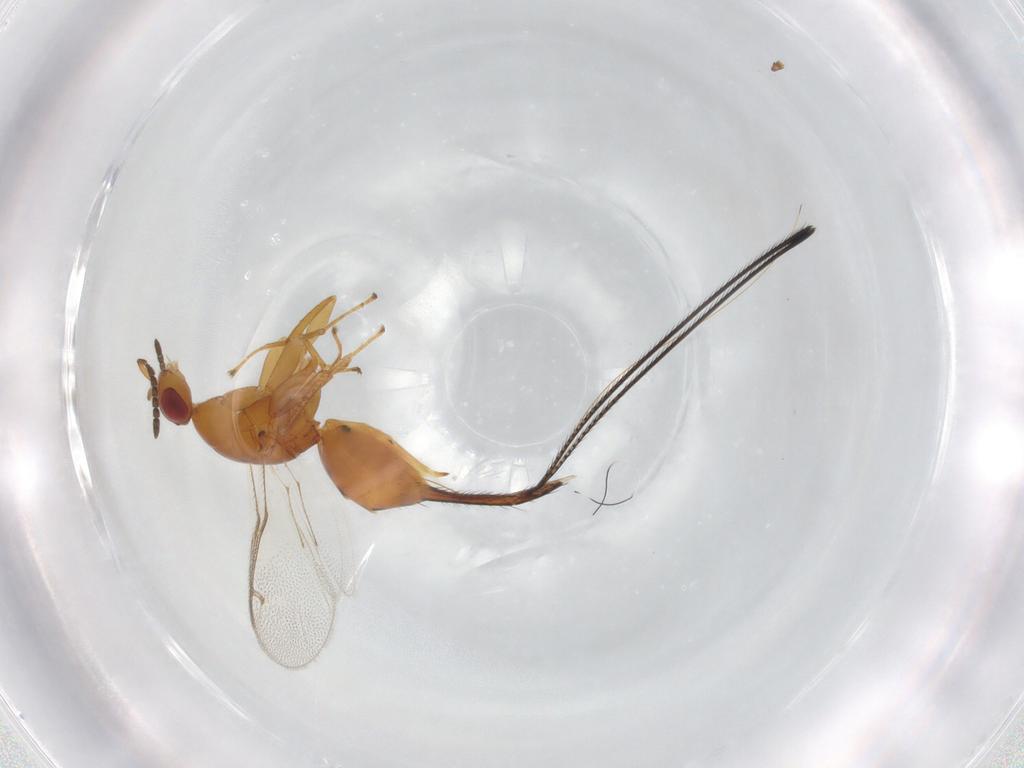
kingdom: Animalia
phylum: Arthropoda
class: Insecta
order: Hymenoptera
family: Pteromalidae
